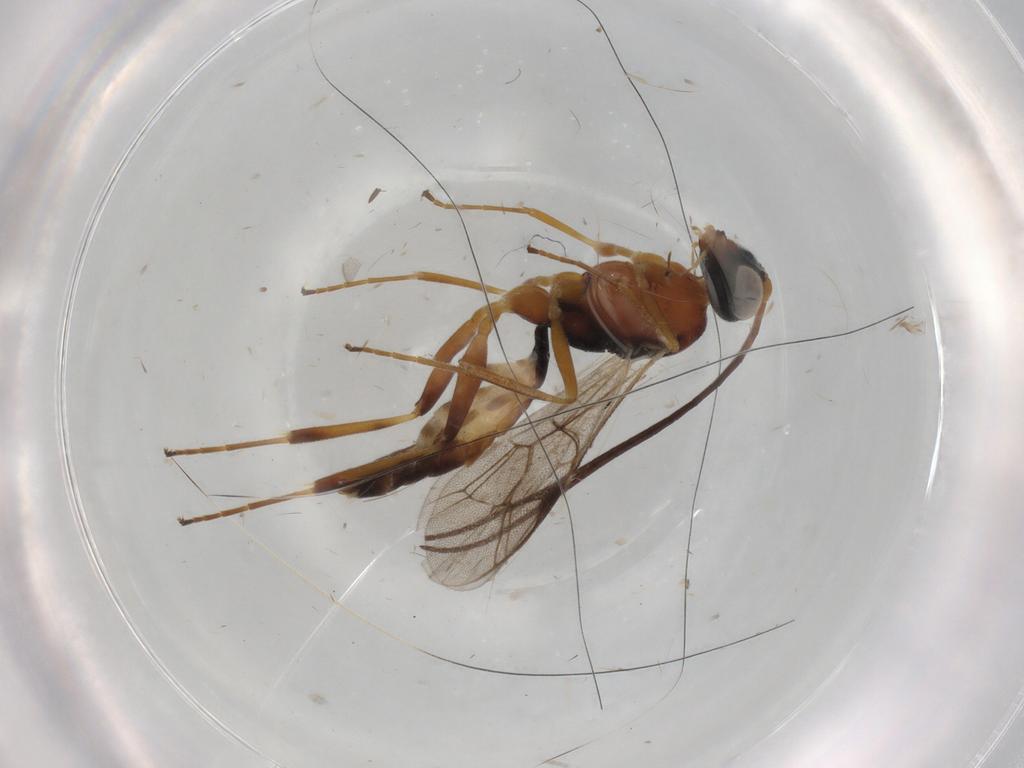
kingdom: Animalia
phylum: Arthropoda
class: Insecta
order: Hymenoptera
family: Ichneumonidae
